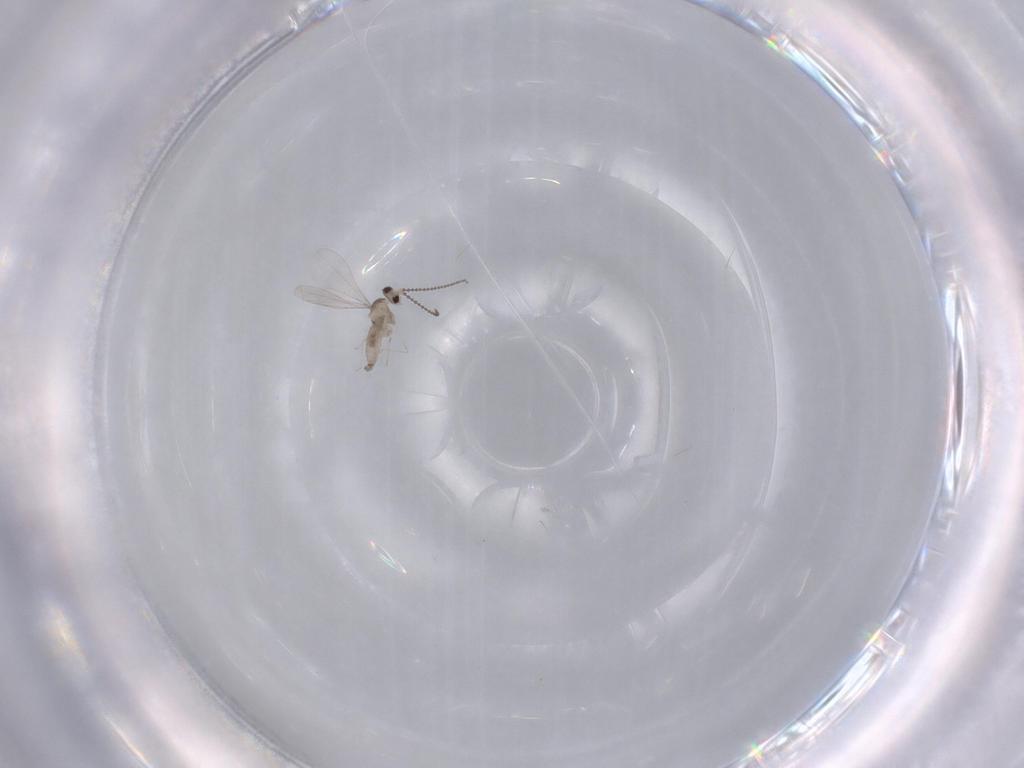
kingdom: Animalia
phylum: Arthropoda
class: Insecta
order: Diptera
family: Cecidomyiidae
